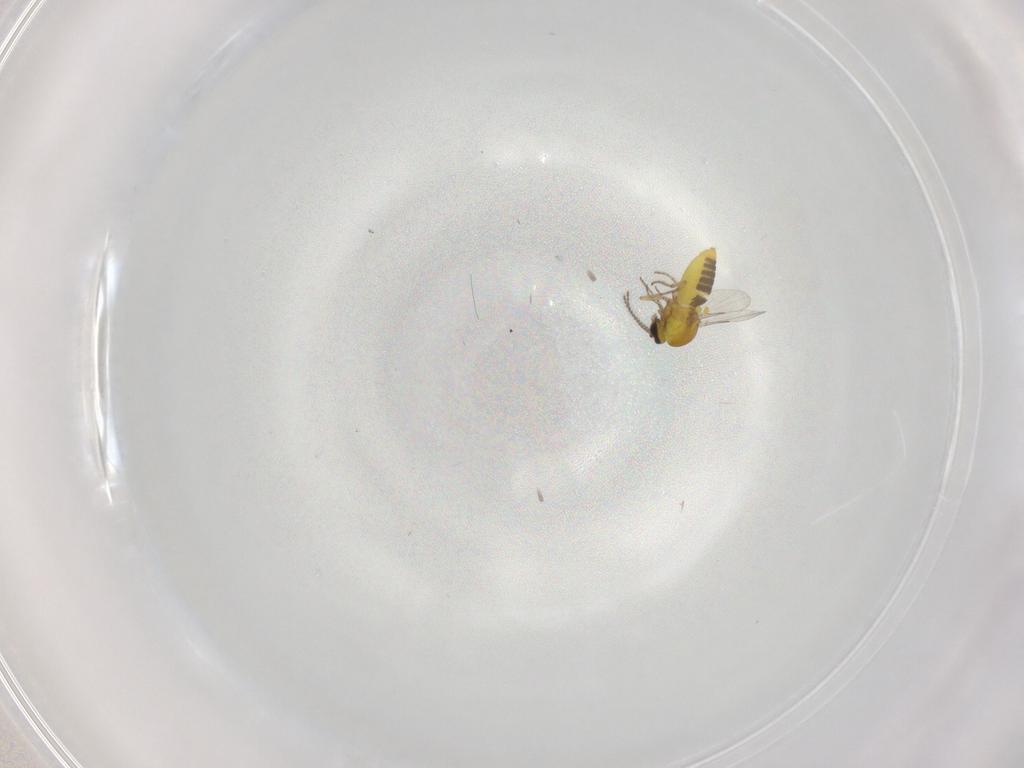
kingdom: Animalia
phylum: Arthropoda
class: Insecta
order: Diptera
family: Ceratopogonidae
